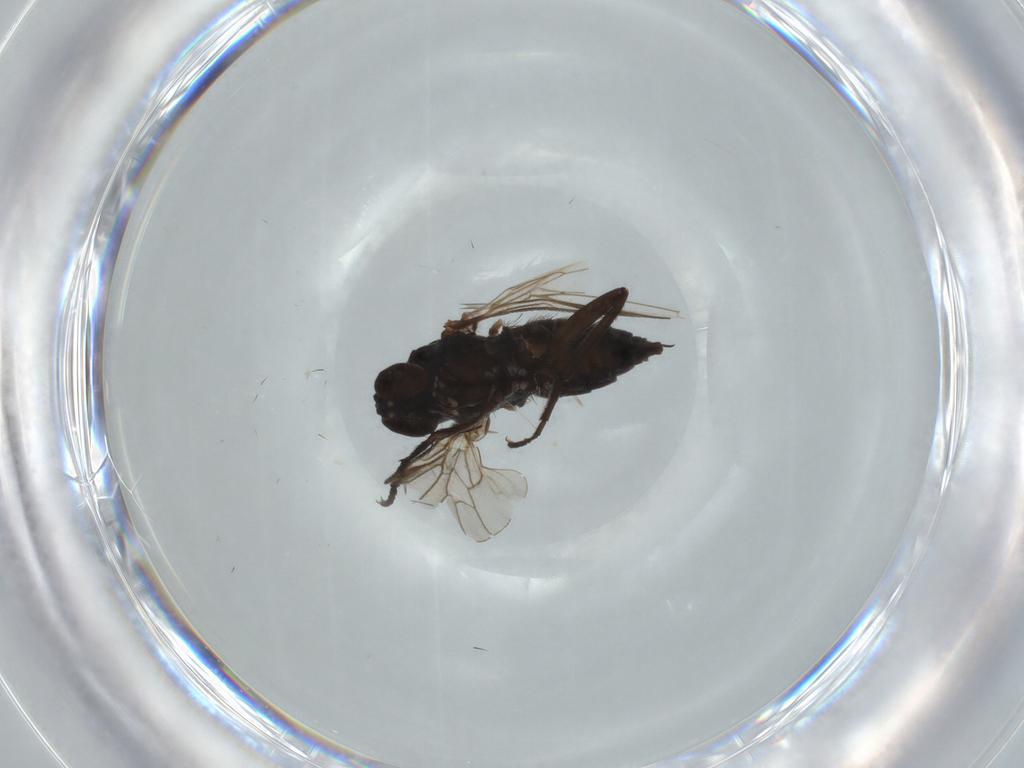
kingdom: Animalia
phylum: Arthropoda
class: Insecta
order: Diptera
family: Empididae
